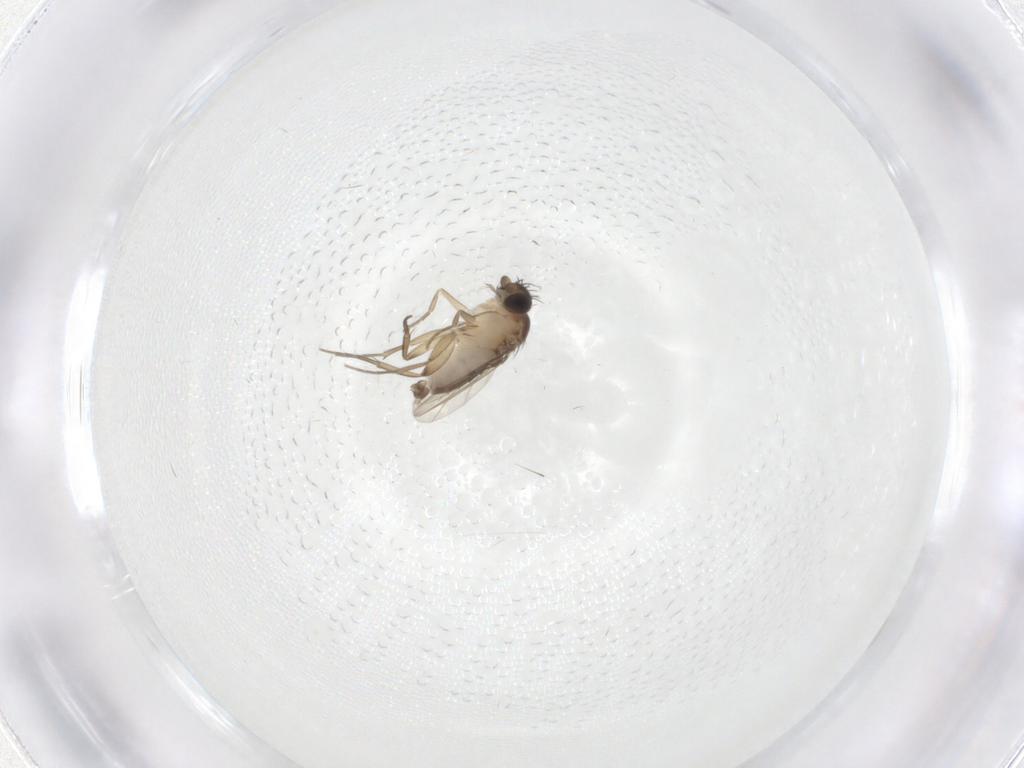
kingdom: Animalia
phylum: Arthropoda
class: Insecta
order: Diptera
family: Phoridae
